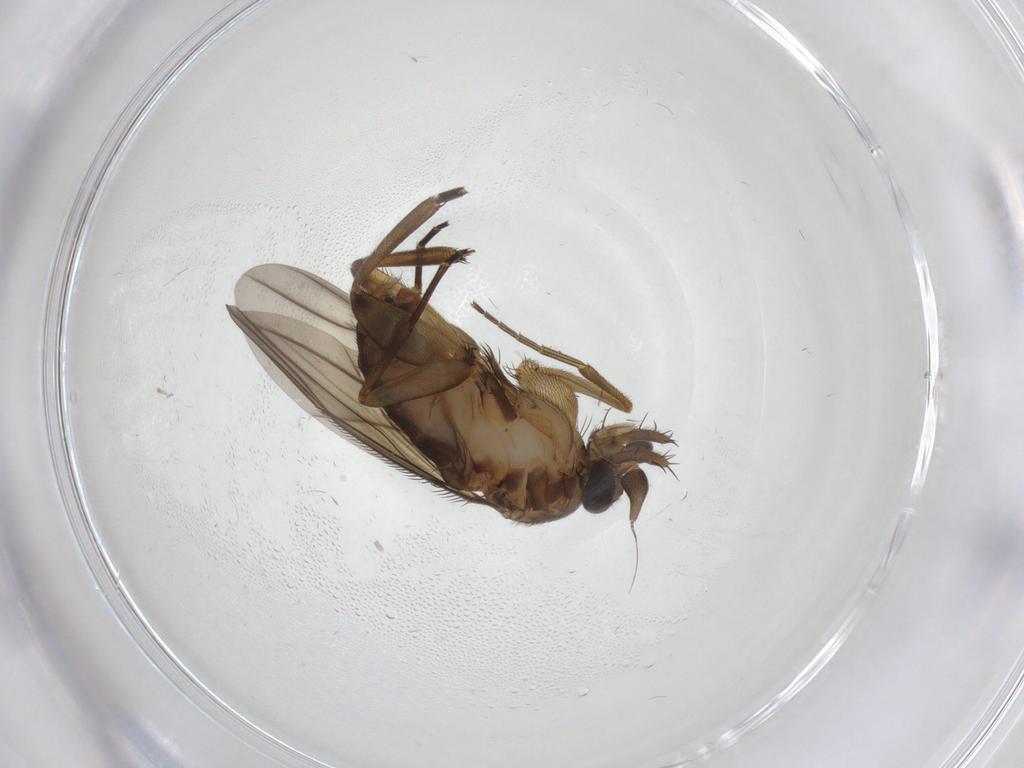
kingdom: Animalia
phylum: Arthropoda
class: Insecta
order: Diptera
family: Phoridae
